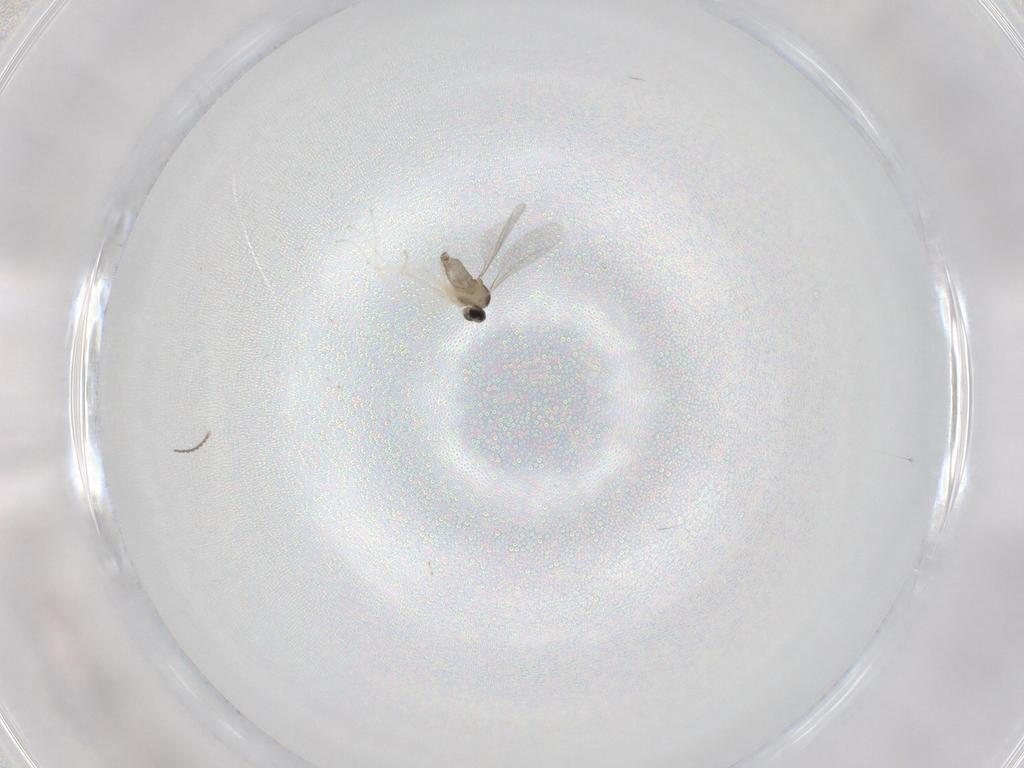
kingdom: Animalia
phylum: Arthropoda
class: Insecta
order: Diptera
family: Cecidomyiidae
